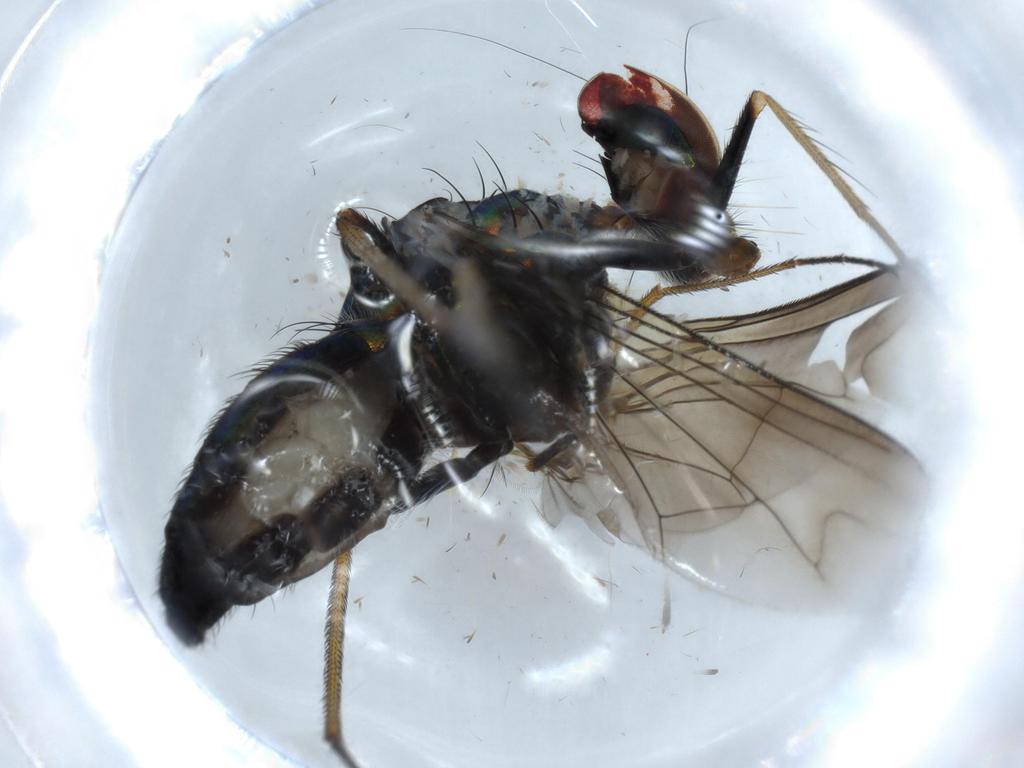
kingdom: Animalia
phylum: Arthropoda
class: Insecta
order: Diptera
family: Dolichopodidae
